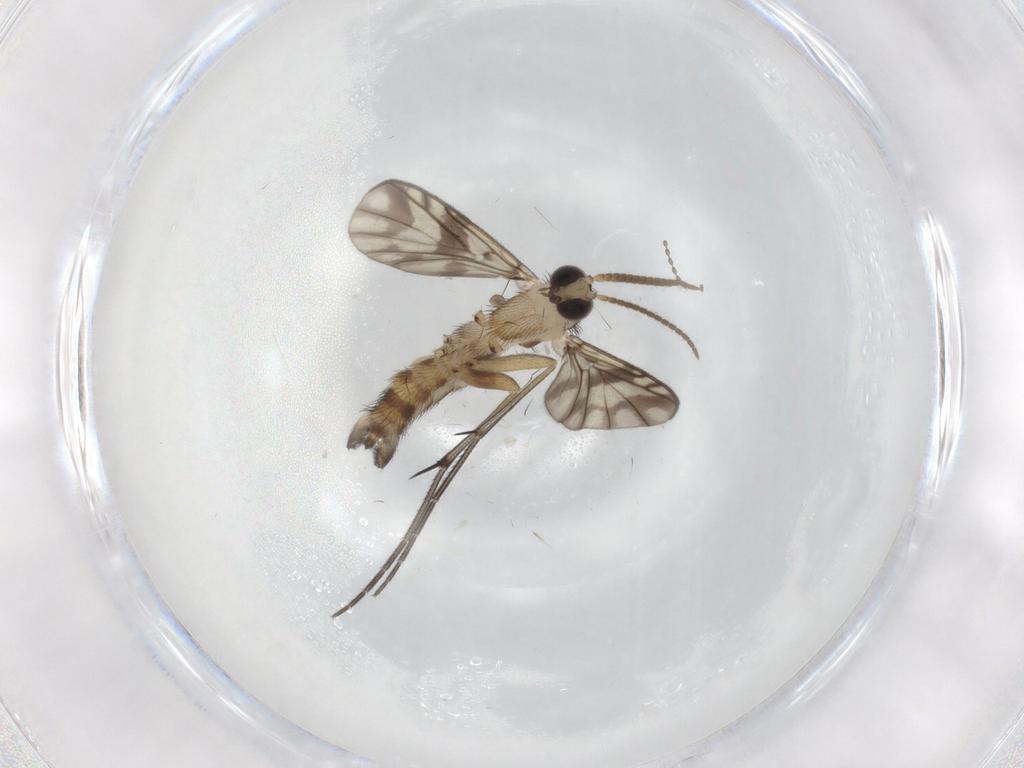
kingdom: Animalia
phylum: Arthropoda
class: Insecta
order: Diptera
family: Keroplatidae
